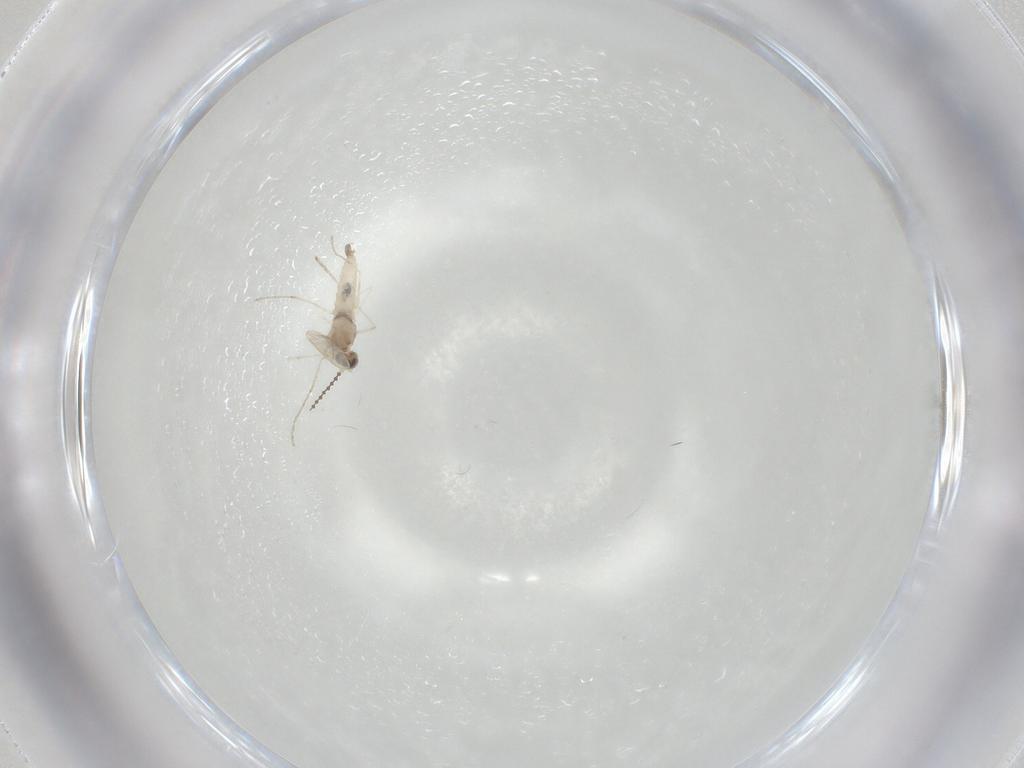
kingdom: Animalia
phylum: Arthropoda
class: Insecta
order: Diptera
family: Cecidomyiidae
